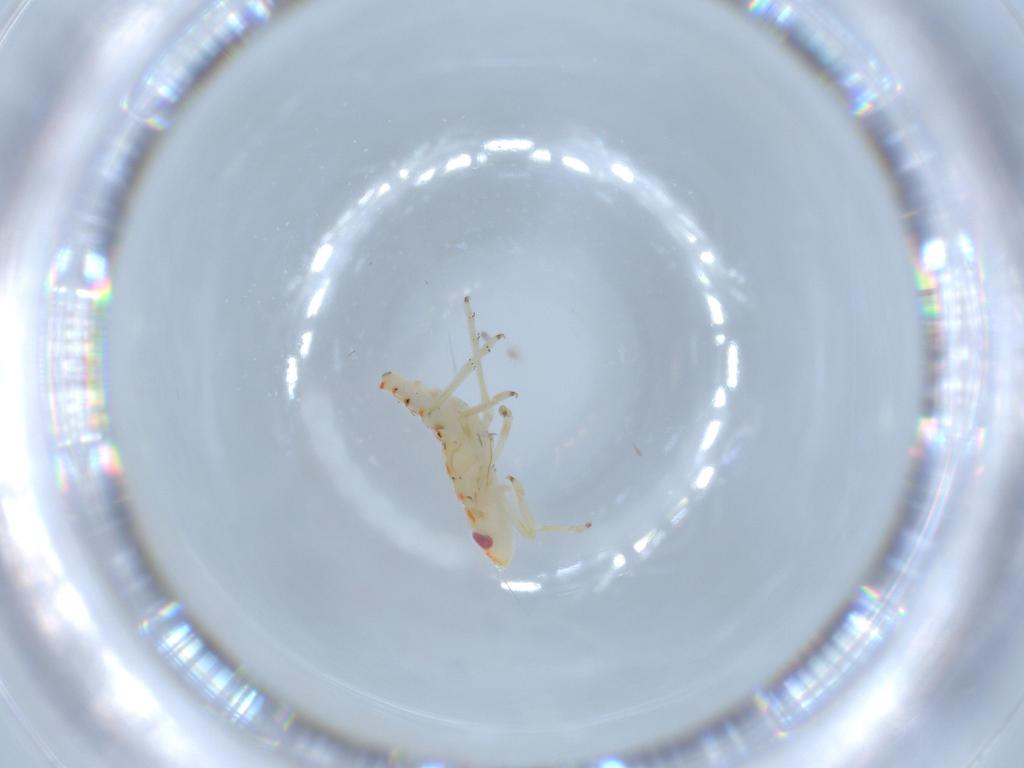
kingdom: Animalia
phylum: Arthropoda
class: Insecta
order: Hemiptera
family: Tropiduchidae
